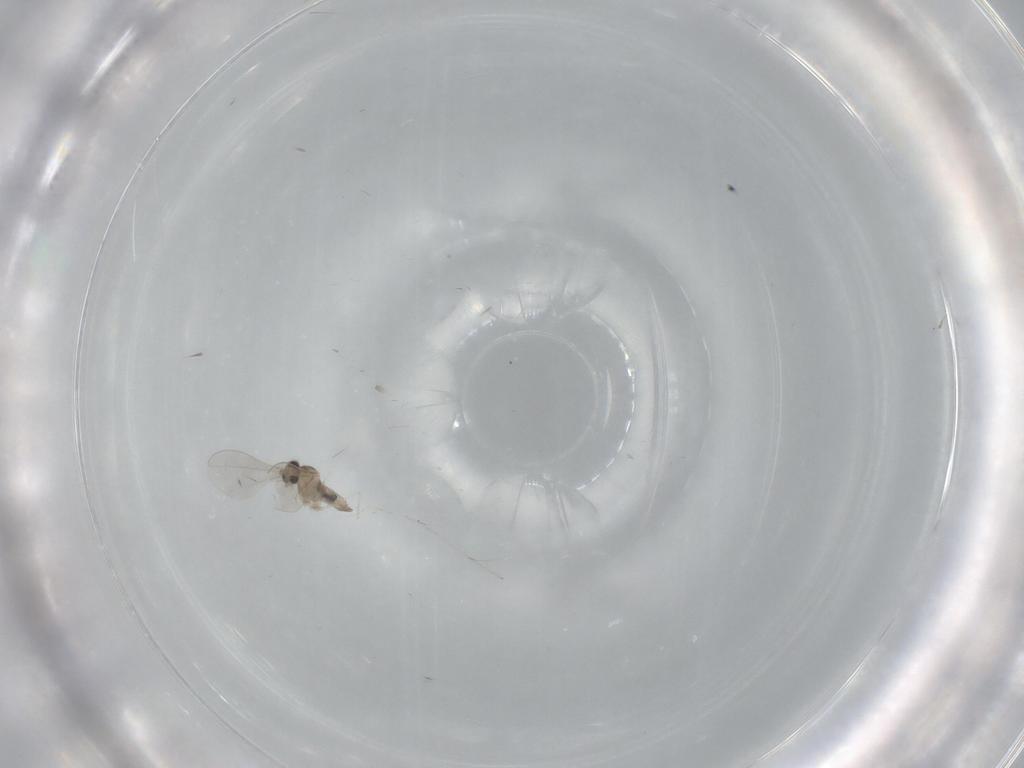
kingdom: Animalia
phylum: Arthropoda
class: Insecta
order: Diptera
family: Cecidomyiidae
